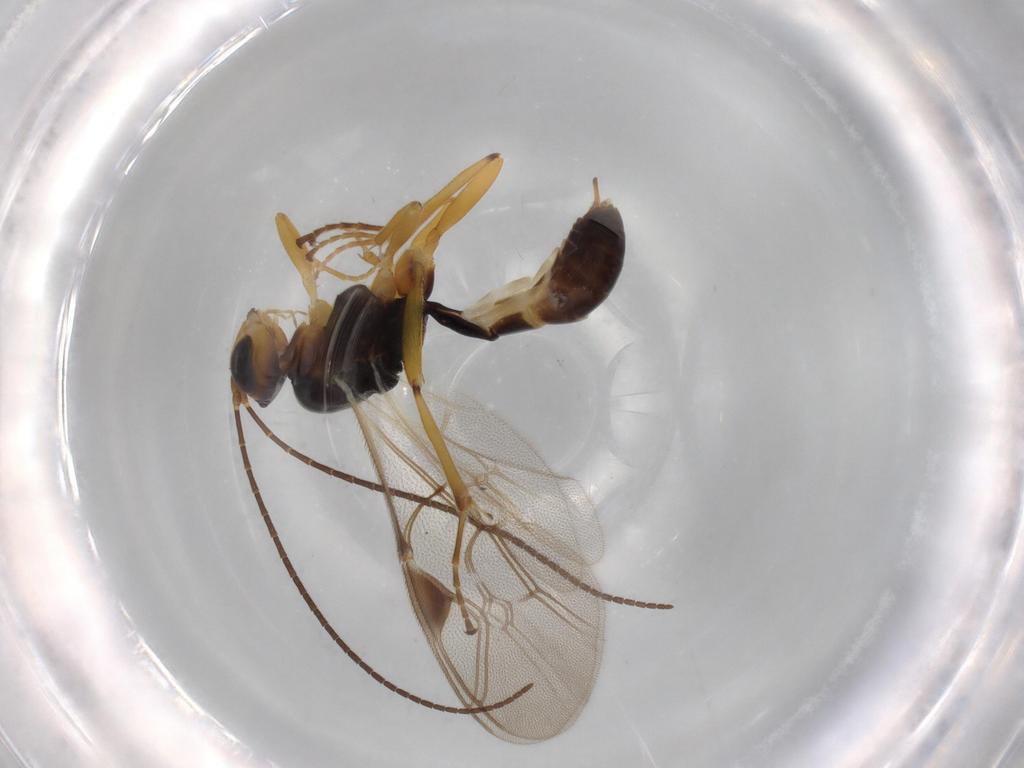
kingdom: Animalia
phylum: Arthropoda
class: Insecta
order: Hymenoptera
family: Ichneumonidae
